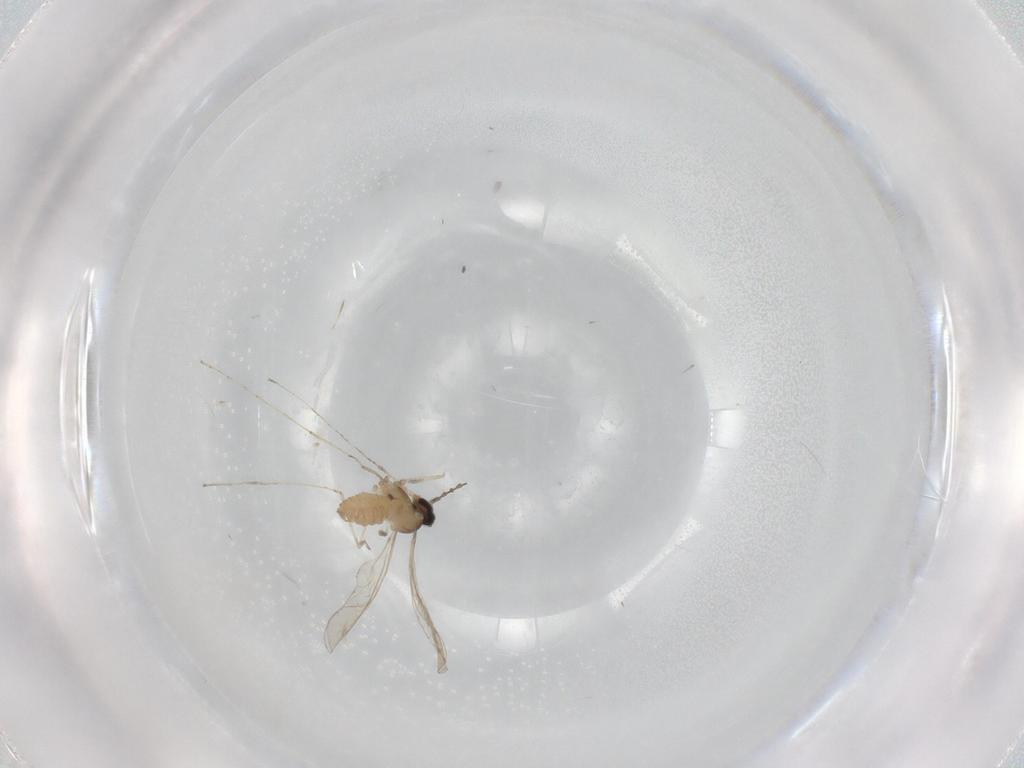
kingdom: Animalia
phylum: Arthropoda
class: Insecta
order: Diptera
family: Cecidomyiidae
